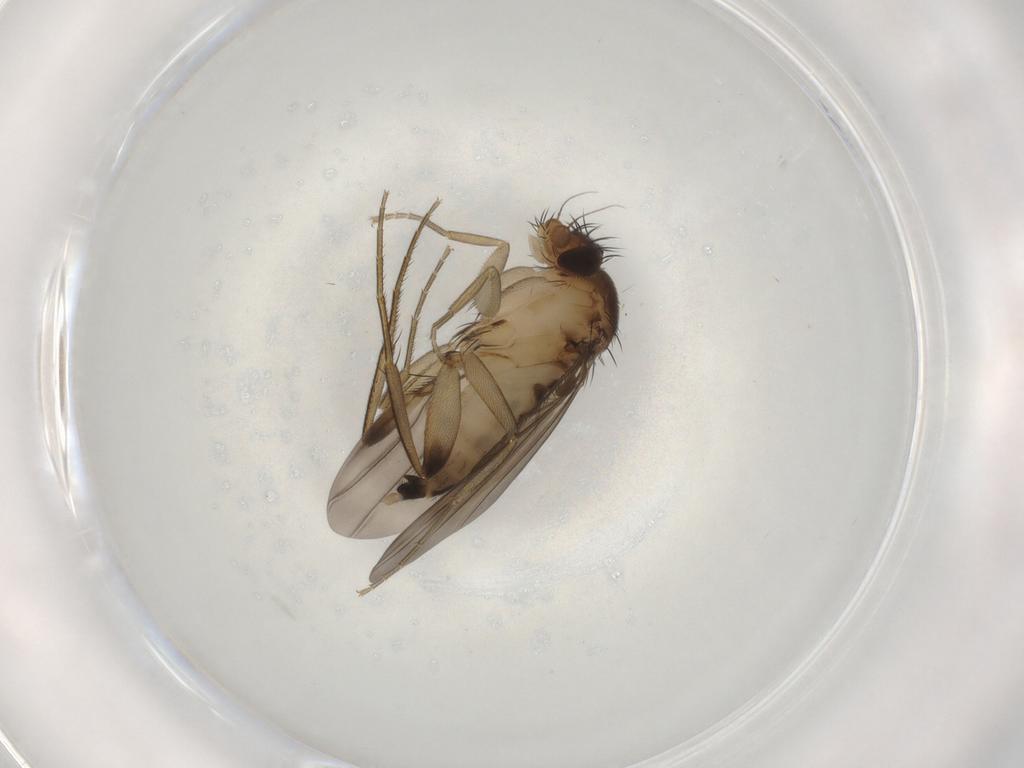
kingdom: Animalia
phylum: Arthropoda
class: Insecta
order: Diptera
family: Phoridae
